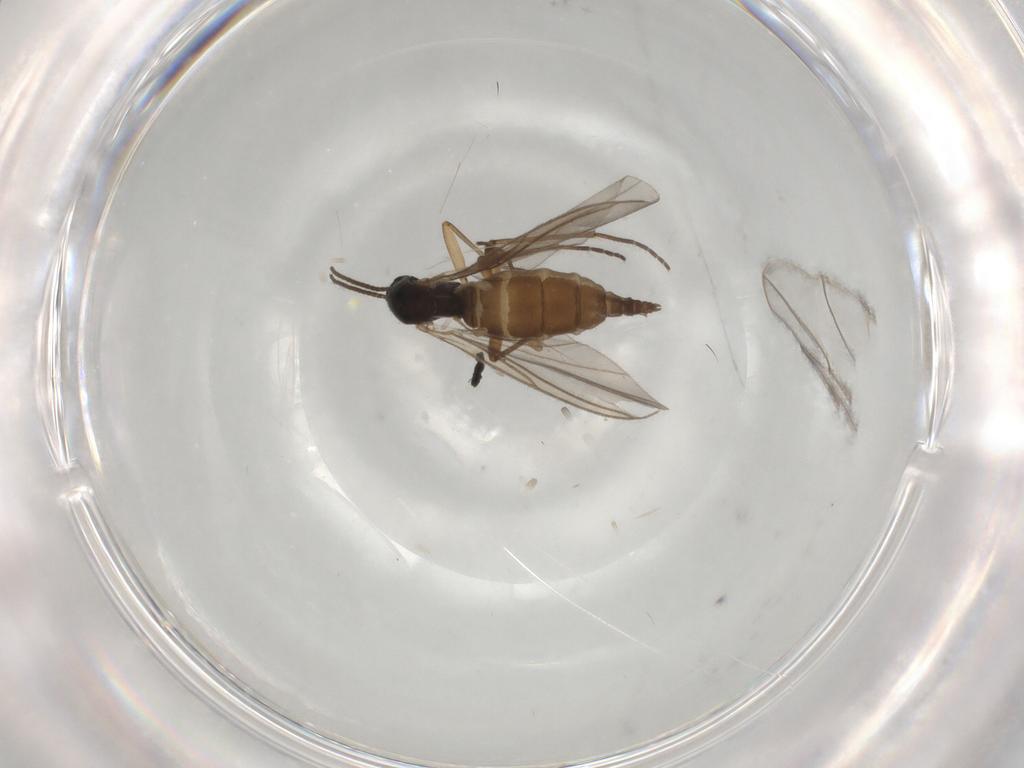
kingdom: Animalia
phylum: Arthropoda
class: Insecta
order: Diptera
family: Sciaridae
